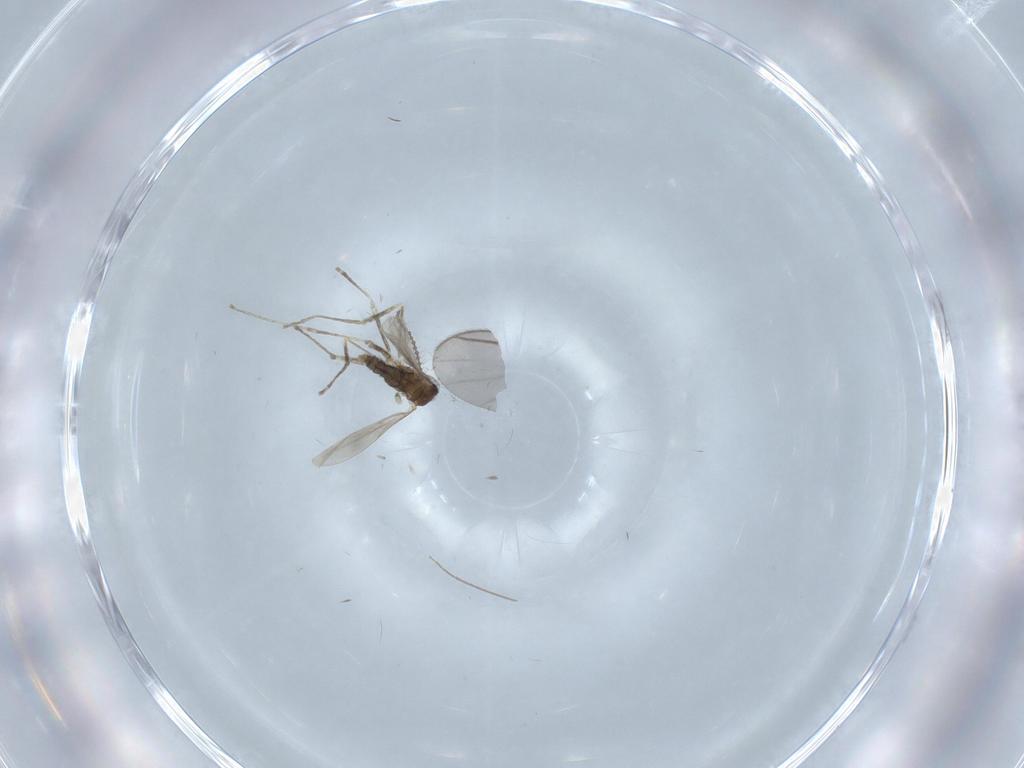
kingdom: Animalia
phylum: Arthropoda
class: Insecta
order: Diptera
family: Cecidomyiidae
